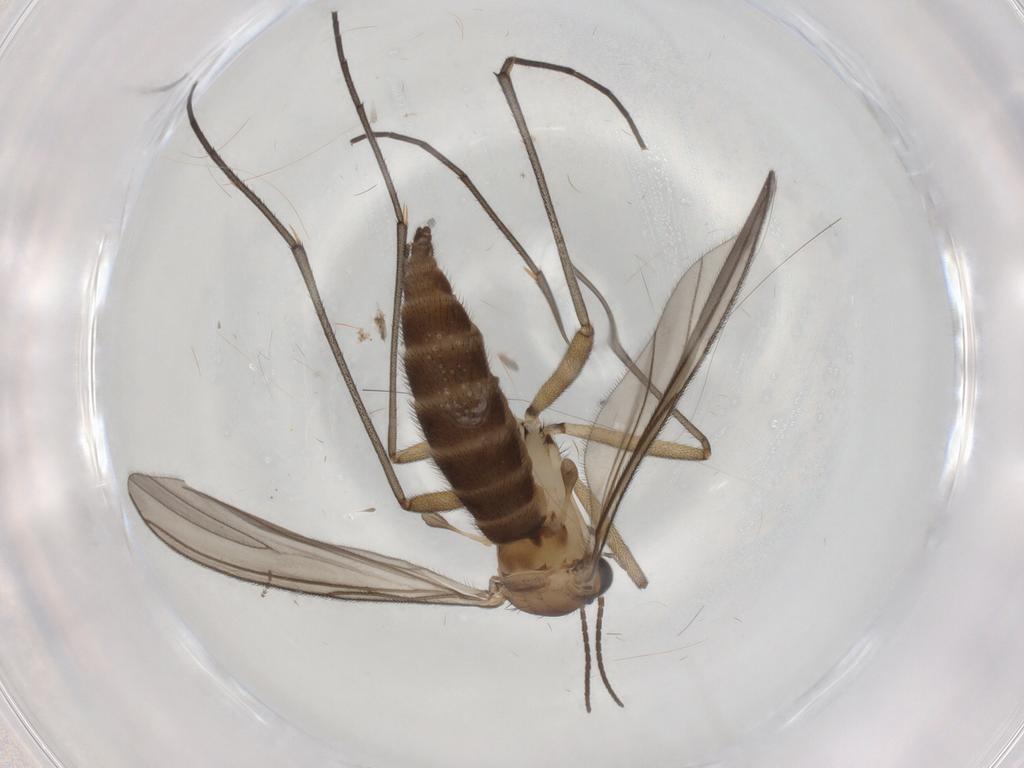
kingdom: Animalia
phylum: Arthropoda
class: Insecta
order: Diptera
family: Sciaridae
